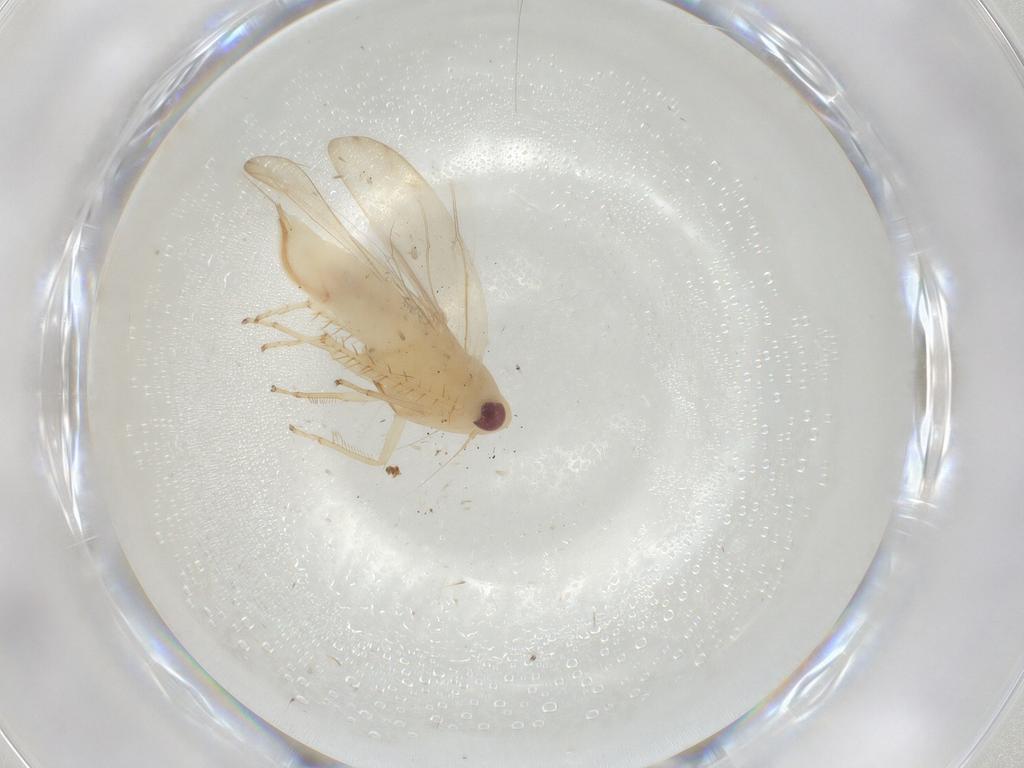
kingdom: Animalia
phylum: Arthropoda
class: Insecta
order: Hemiptera
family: Cicadellidae
